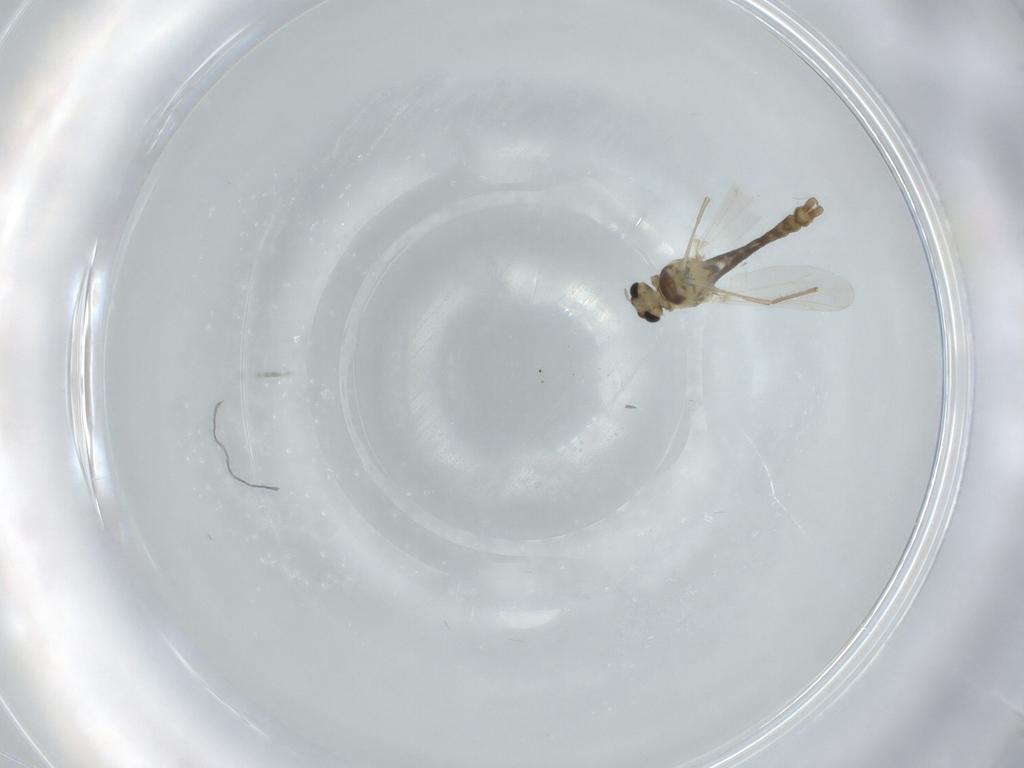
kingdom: Animalia
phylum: Arthropoda
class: Insecta
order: Diptera
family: Chironomidae
